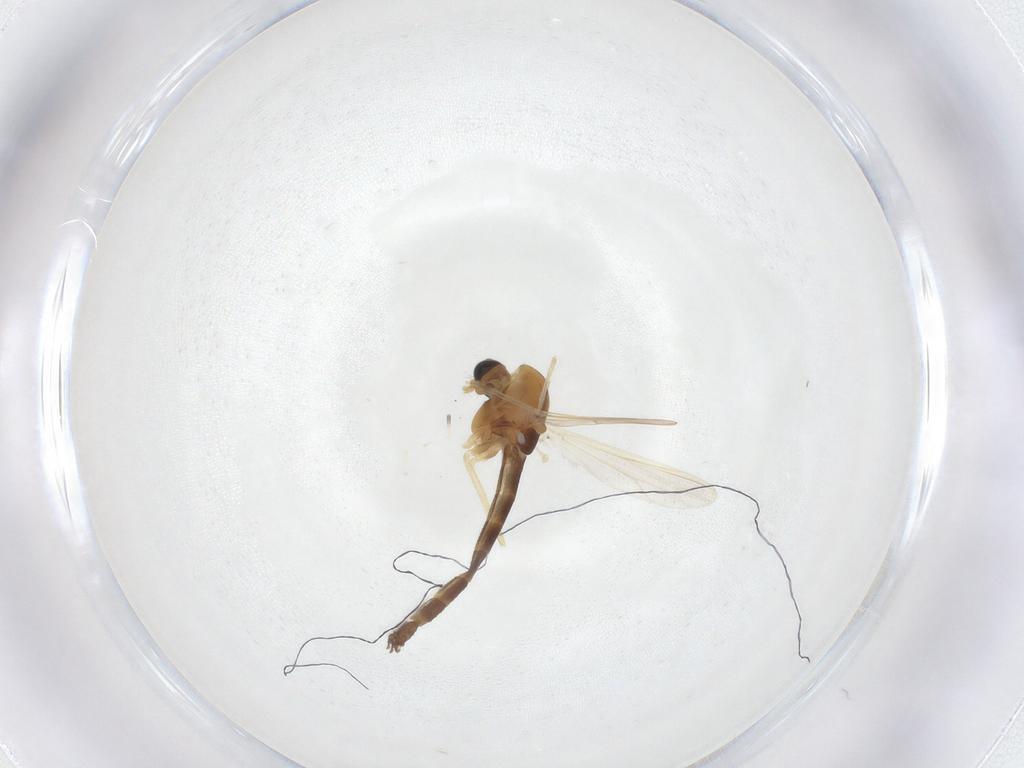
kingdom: Animalia
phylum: Arthropoda
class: Insecta
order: Diptera
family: Chironomidae
